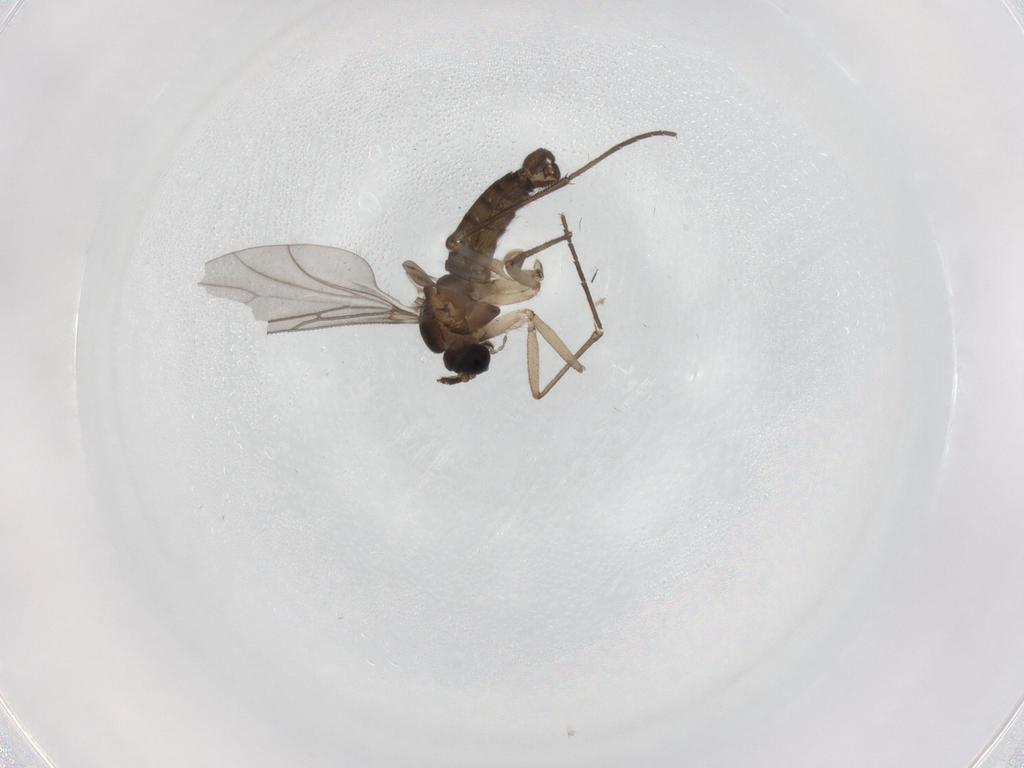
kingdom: Animalia
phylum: Arthropoda
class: Insecta
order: Diptera
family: Sciaridae
